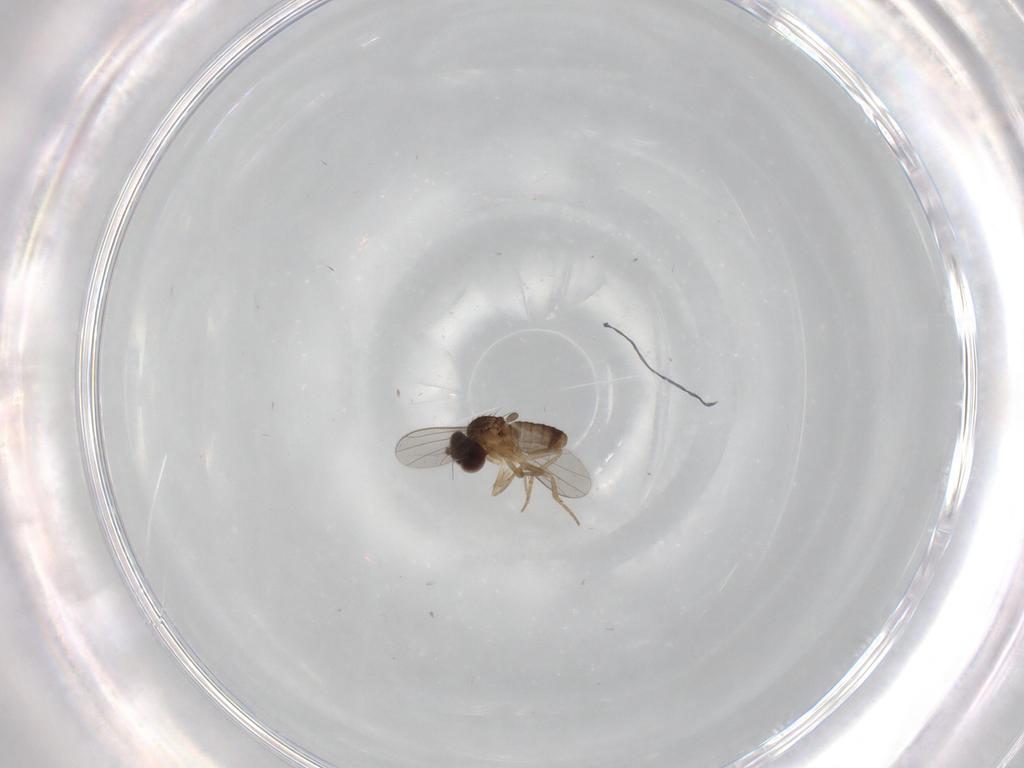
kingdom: Animalia
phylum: Arthropoda
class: Insecta
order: Diptera
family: Dolichopodidae
